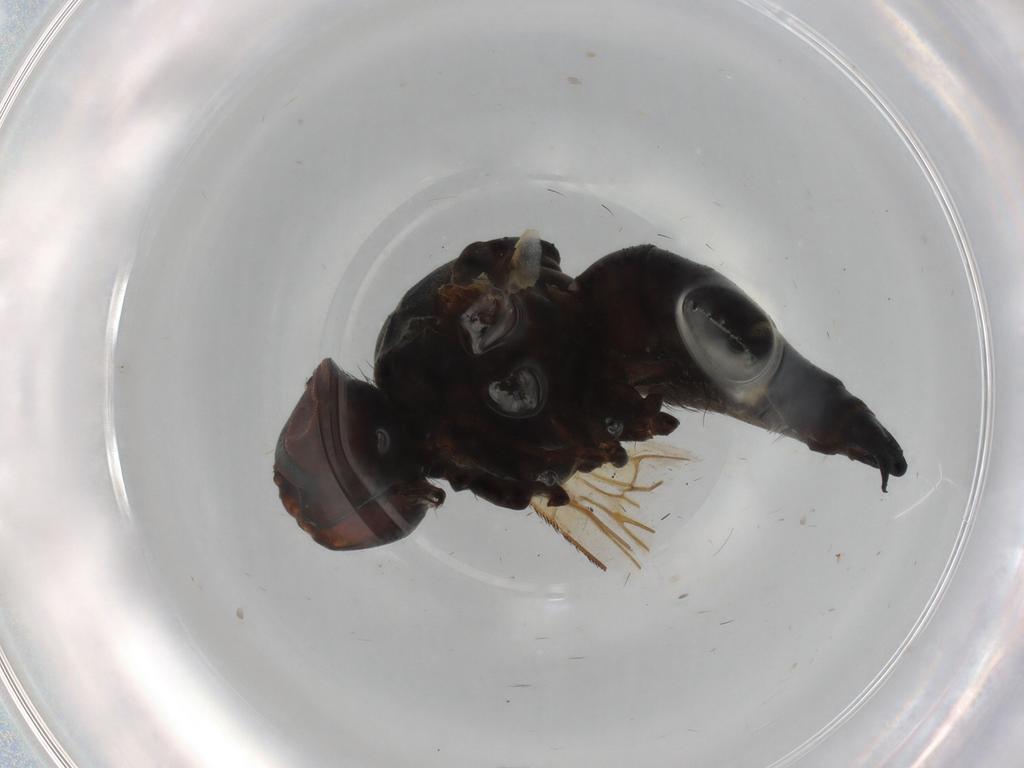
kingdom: Animalia
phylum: Arthropoda
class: Insecta
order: Diptera
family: Tachinidae
